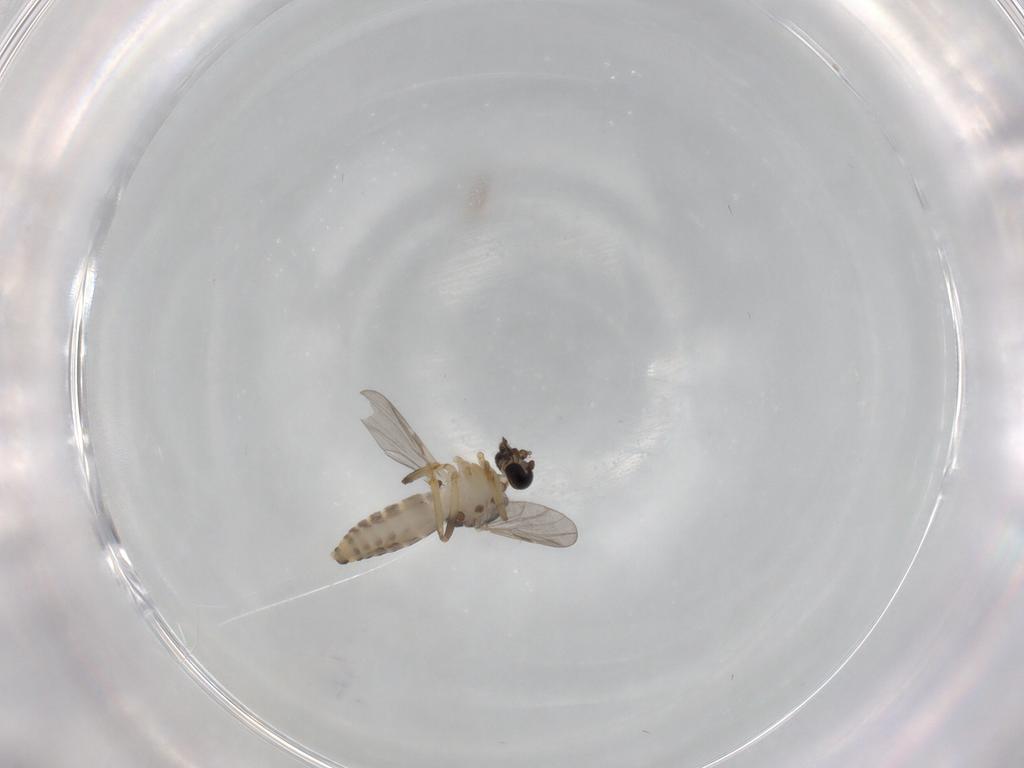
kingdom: Animalia
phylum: Arthropoda
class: Insecta
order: Diptera
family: Ceratopogonidae
